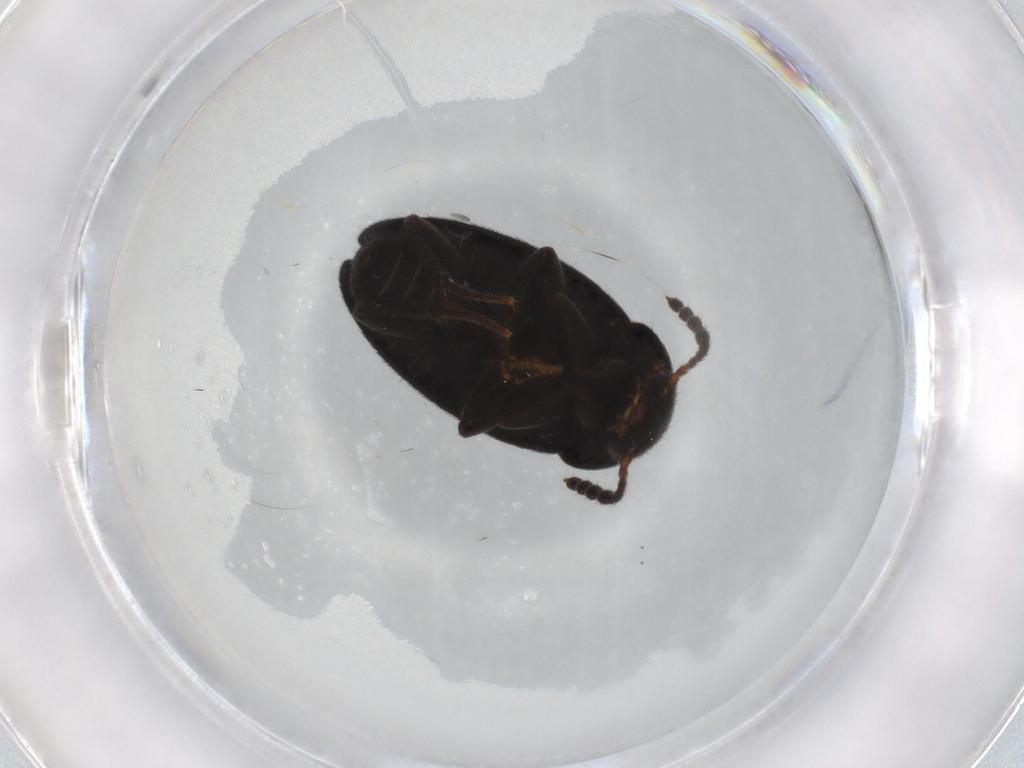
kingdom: Animalia
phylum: Arthropoda
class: Insecta
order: Coleoptera
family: Leiodidae
